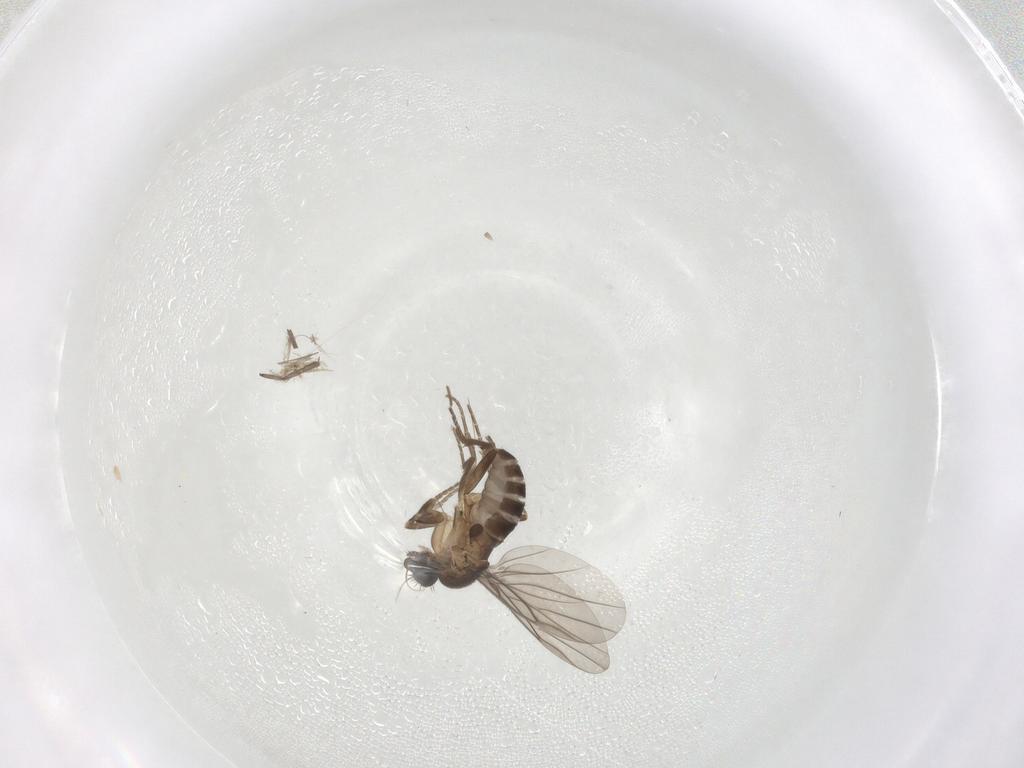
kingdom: Animalia
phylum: Arthropoda
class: Insecta
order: Diptera
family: Phoridae
